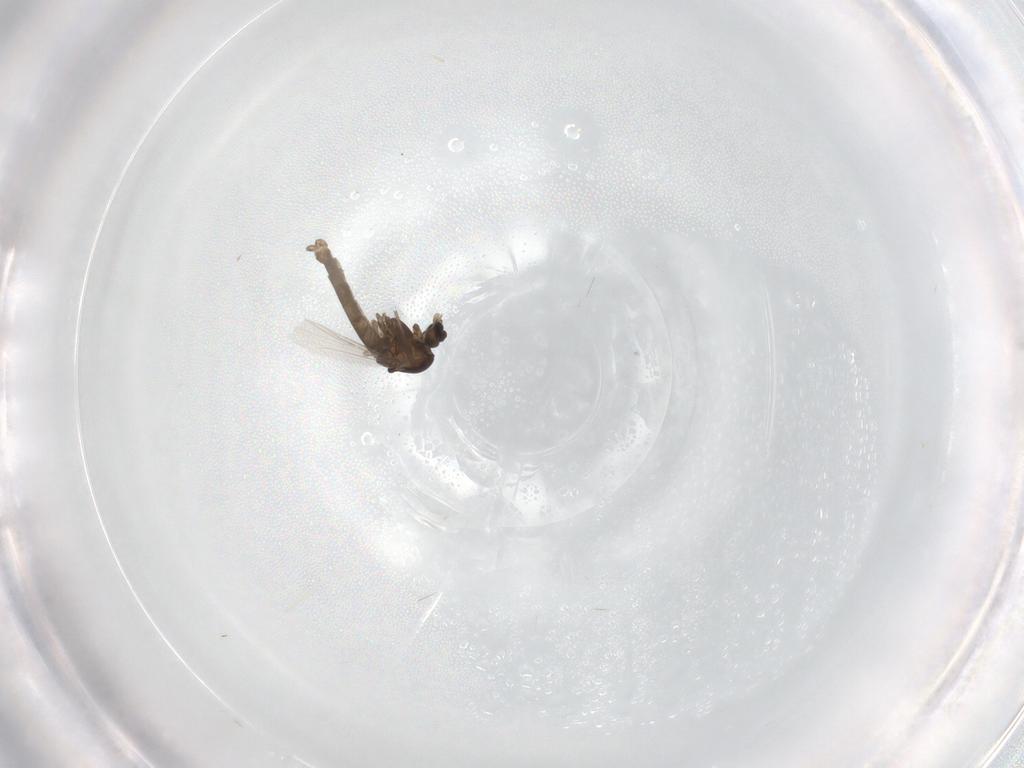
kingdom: Animalia
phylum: Arthropoda
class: Insecta
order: Diptera
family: Chironomidae
